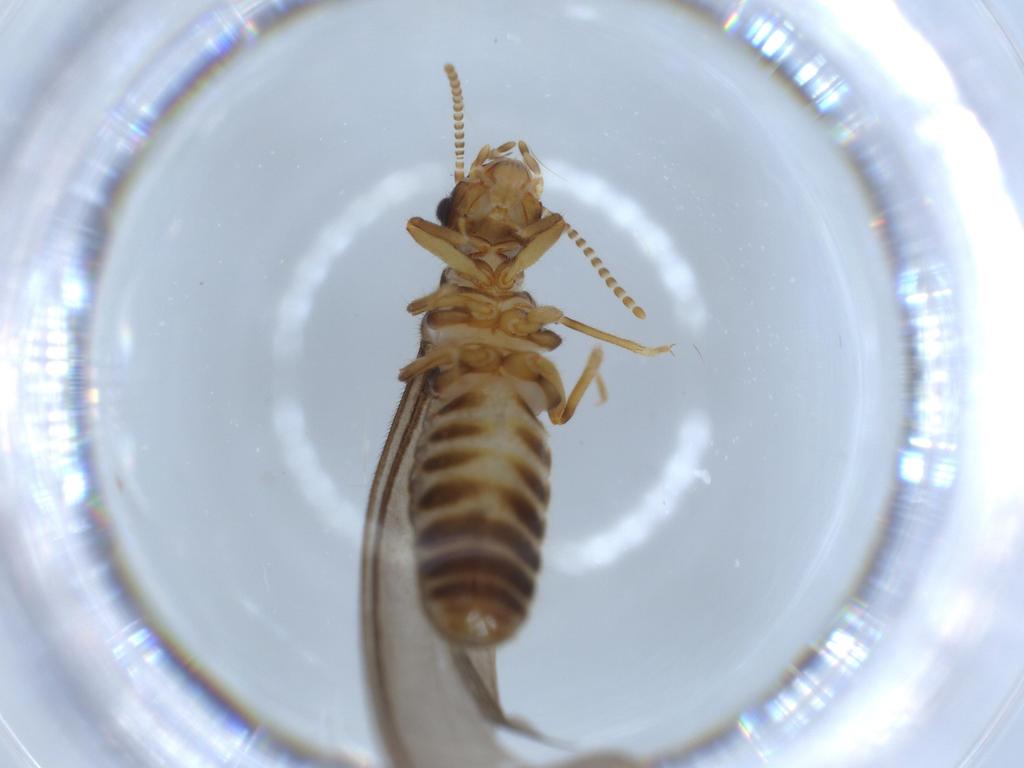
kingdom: Animalia
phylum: Arthropoda
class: Insecta
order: Blattodea
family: Termitidae
